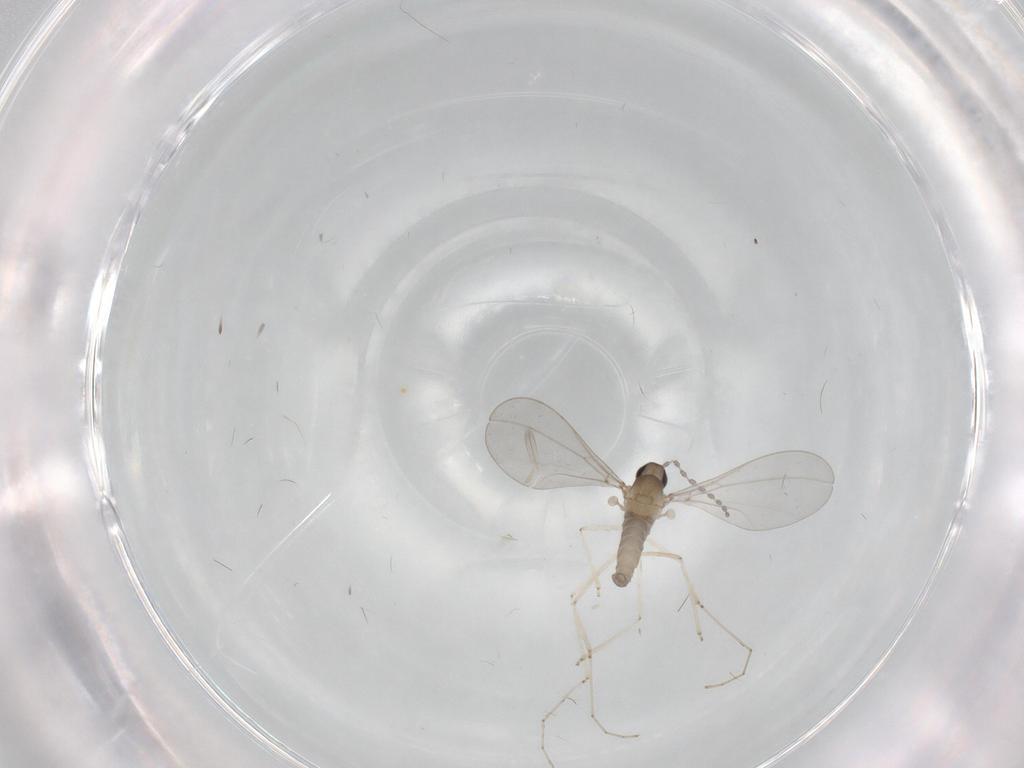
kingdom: Animalia
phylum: Arthropoda
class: Insecta
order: Diptera
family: Cecidomyiidae
